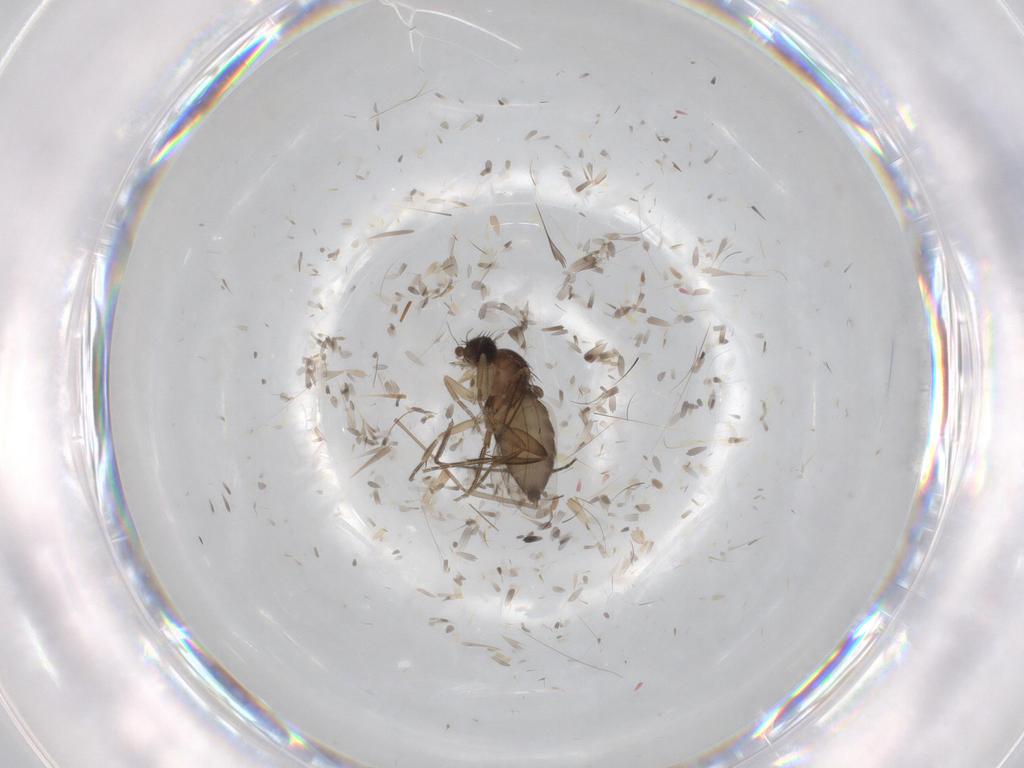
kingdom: Animalia
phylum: Arthropoda
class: Insecta
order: Diptera
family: Phoridae
